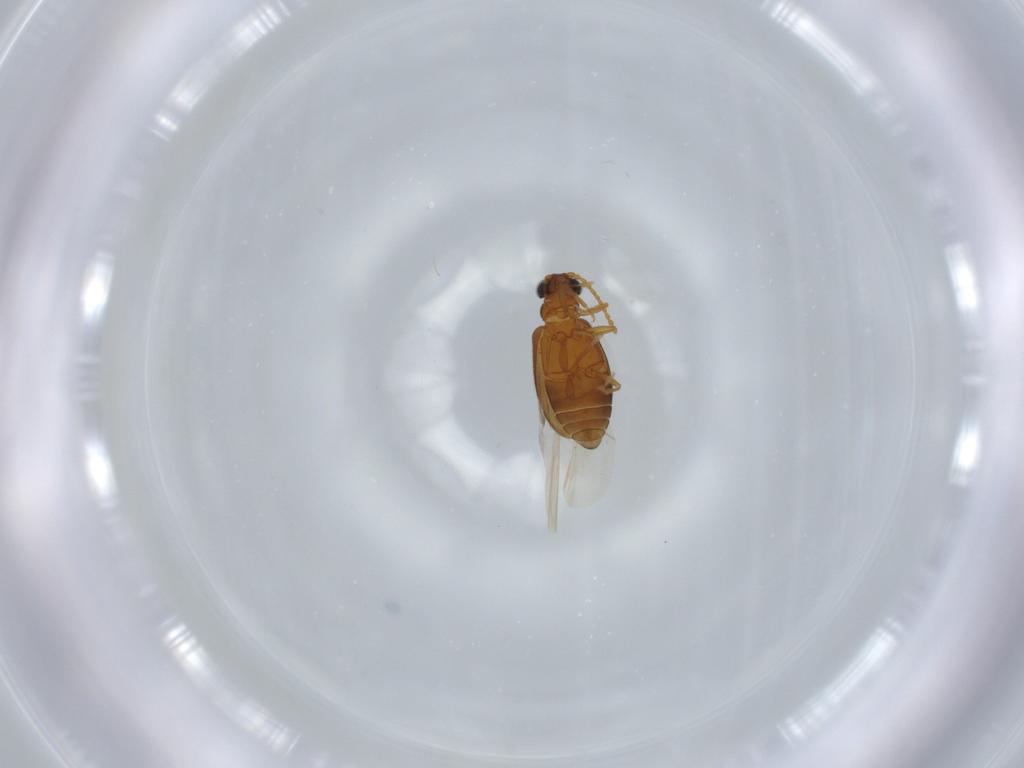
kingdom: Animalia
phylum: Arthropoda
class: Insecta
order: Coleoptera
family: Aderidae
